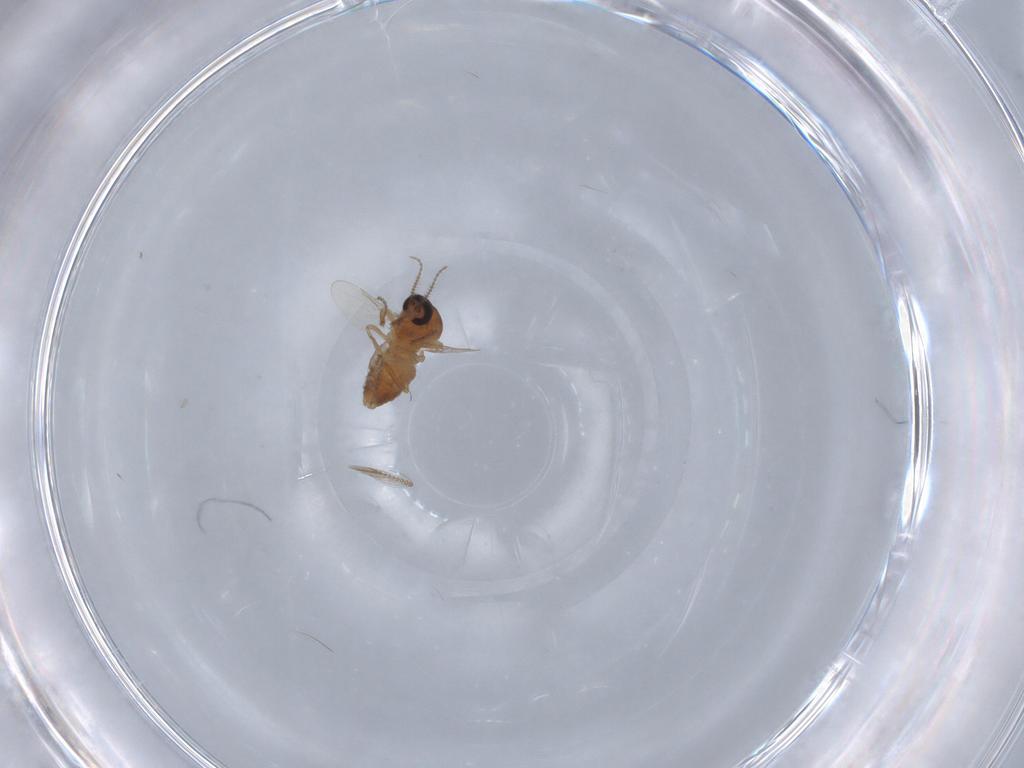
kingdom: Animalia
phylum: Arthropoda
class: Insecta
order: Diptera
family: Ceratopogonidae
